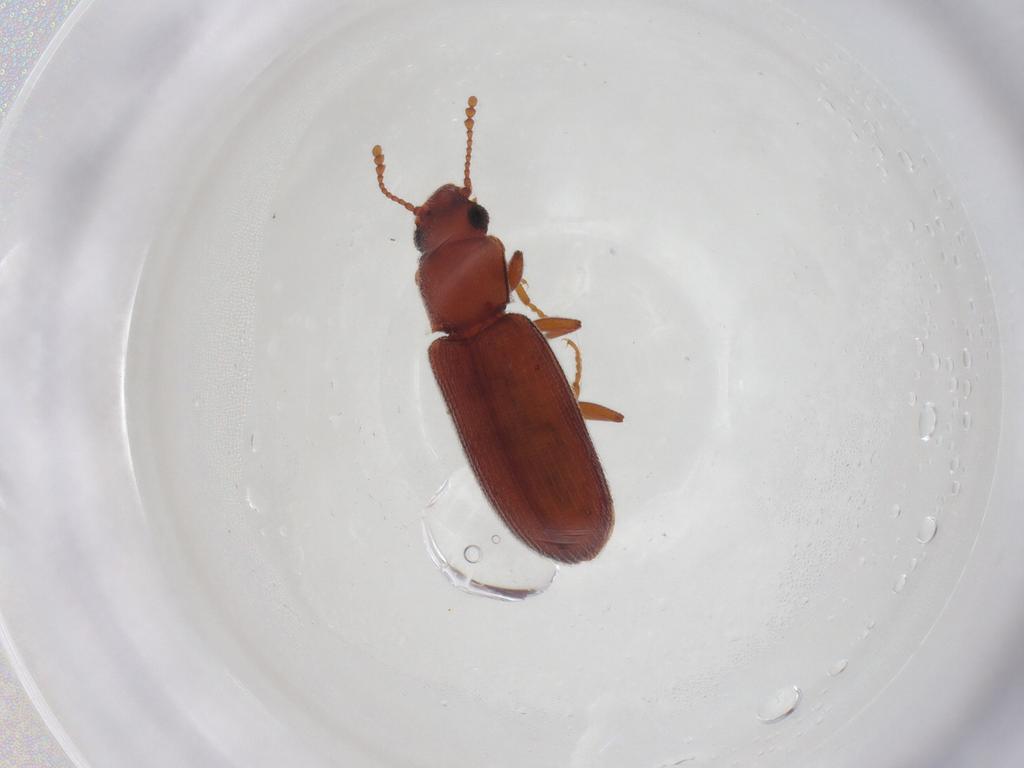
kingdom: Animalia
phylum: Arthropoda
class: Insecta
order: Coleoptera
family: Cryptophagidae
